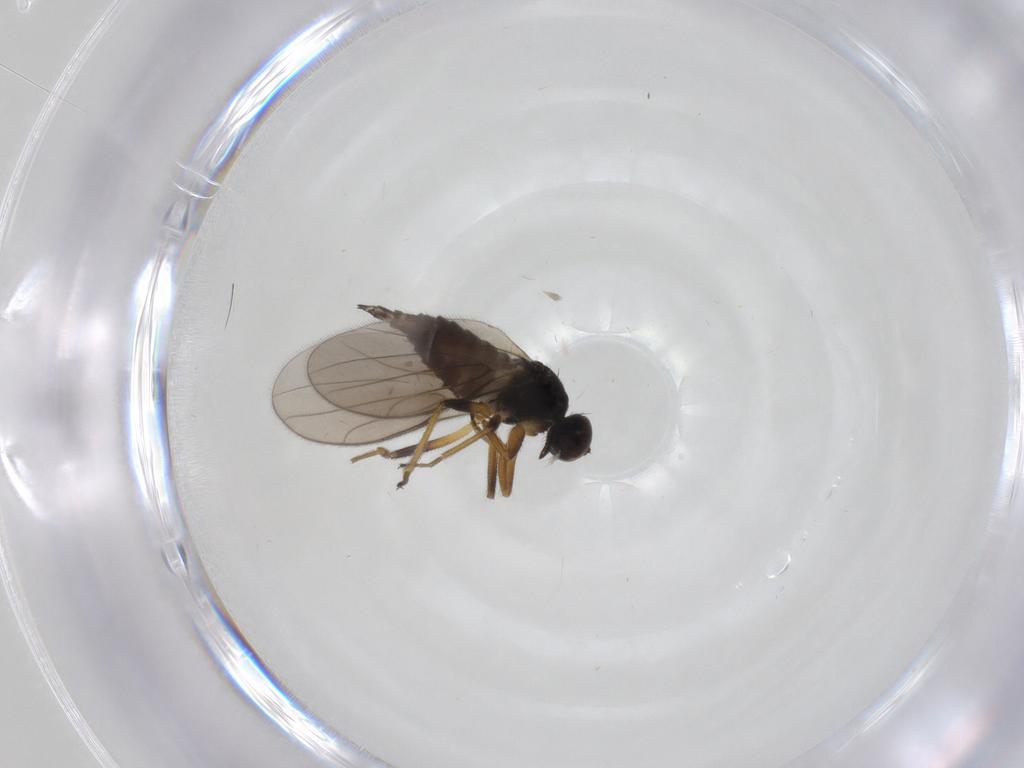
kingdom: Animalia
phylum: Arthropoda
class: Insecta
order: Diptera
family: Hybotidae
